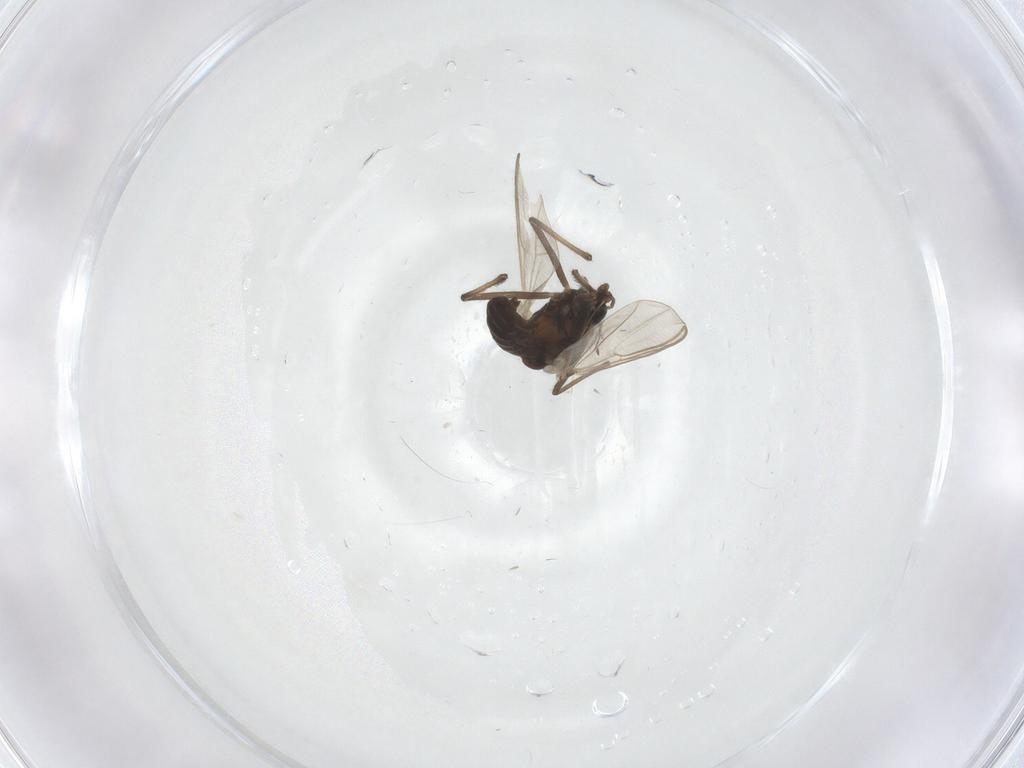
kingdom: Animalia
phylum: Arthropoda
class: Insecta
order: Diptera
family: Chironomidae
